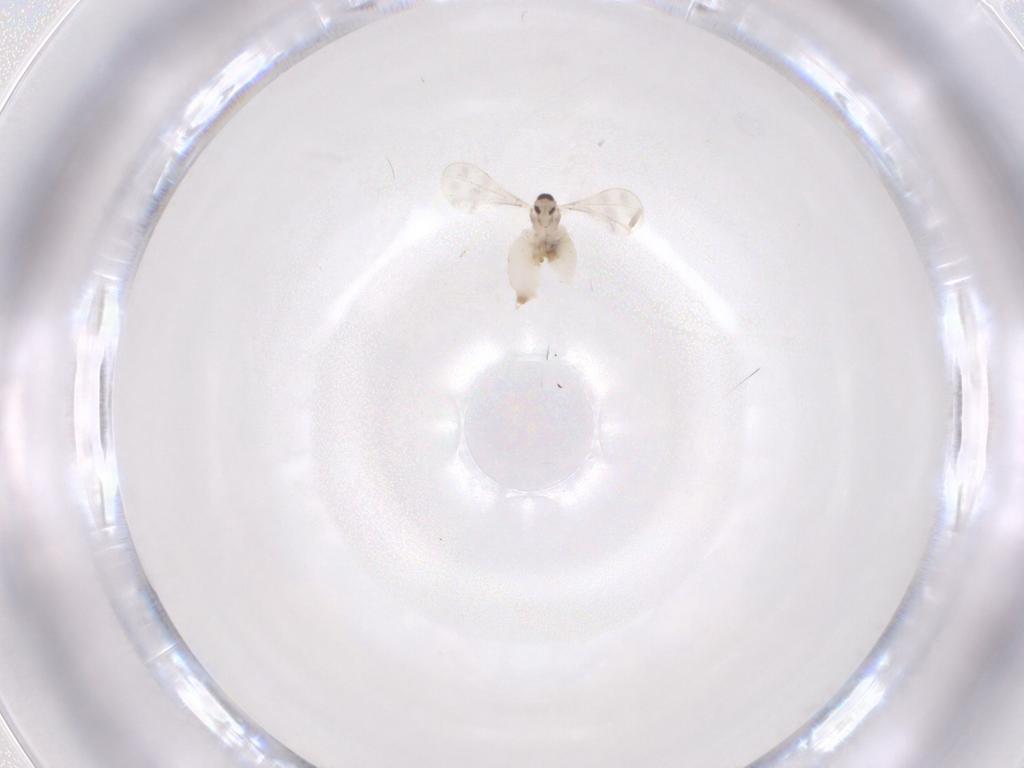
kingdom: Animalia
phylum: Arthropoda
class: Insecta
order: Diptera
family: Cecidomyiidae
